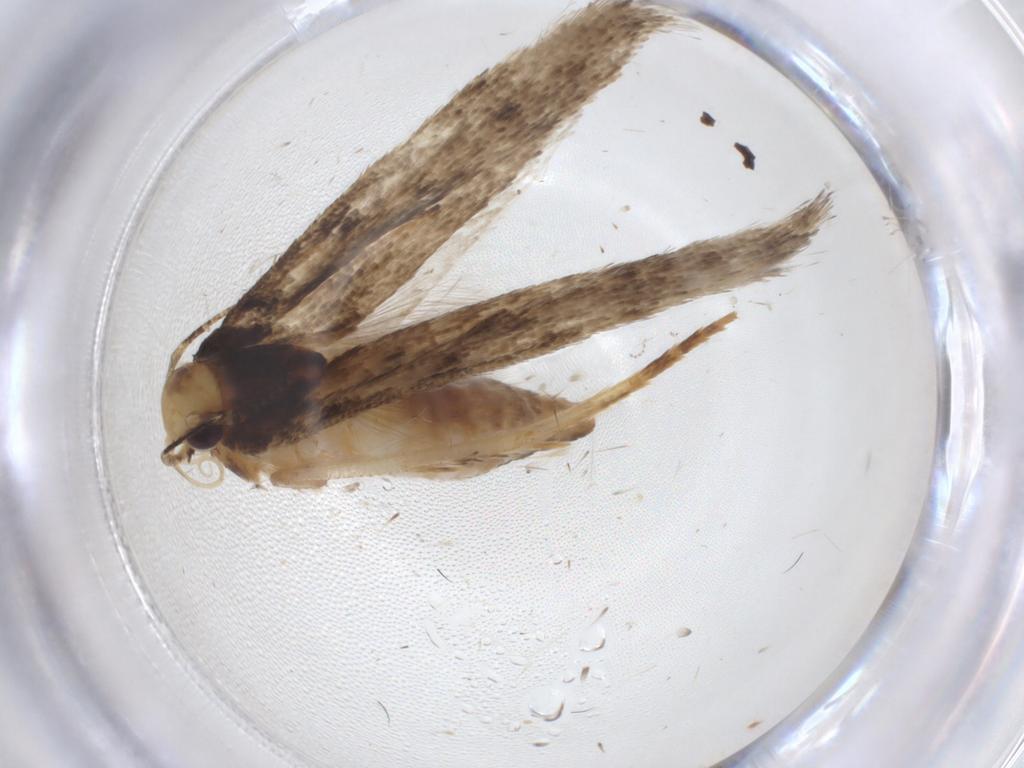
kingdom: Animalia
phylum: Arthropoda
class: Insecta
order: Lepidoptera
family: Gelechiidae
